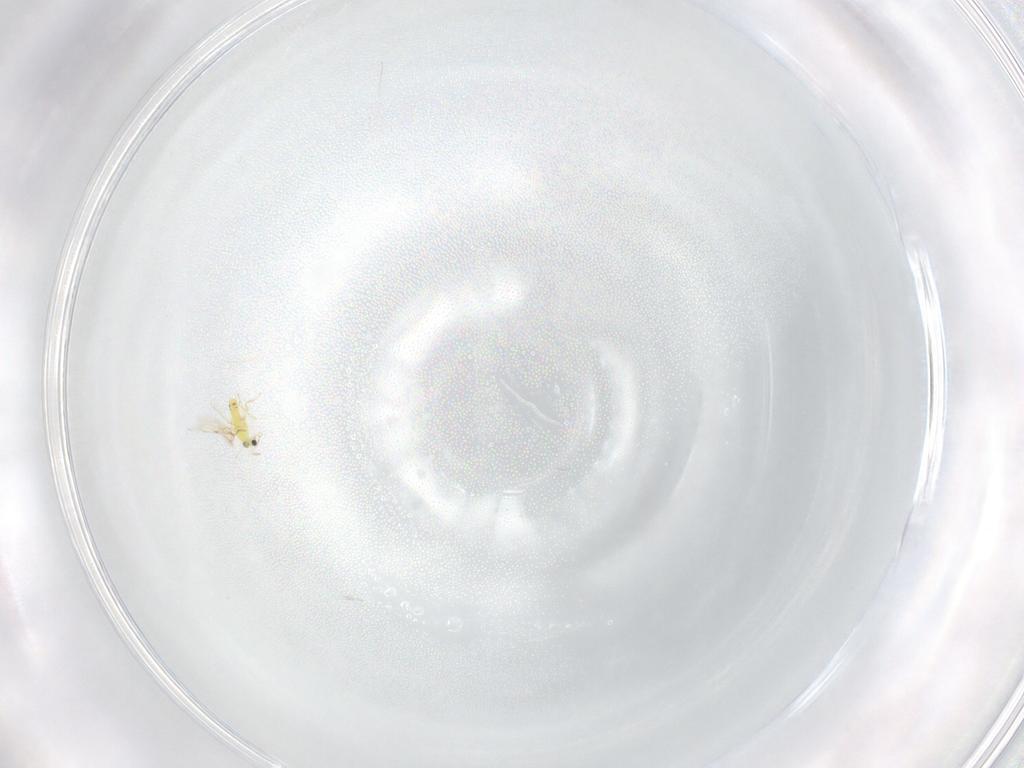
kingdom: Animalia
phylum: Arthropoda
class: Insecta
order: Hymenoptera
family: Trichogrammatidae
